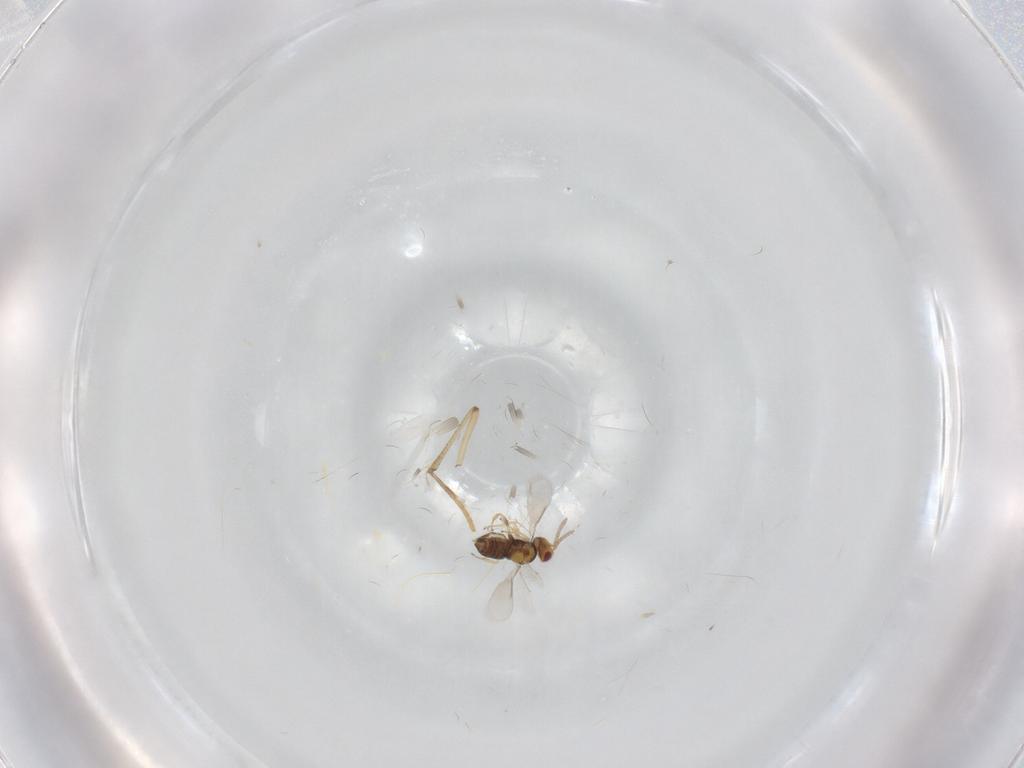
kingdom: Animalia
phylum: Arthropoda
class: Insecta
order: Hymenoptera
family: Aphelinidae
